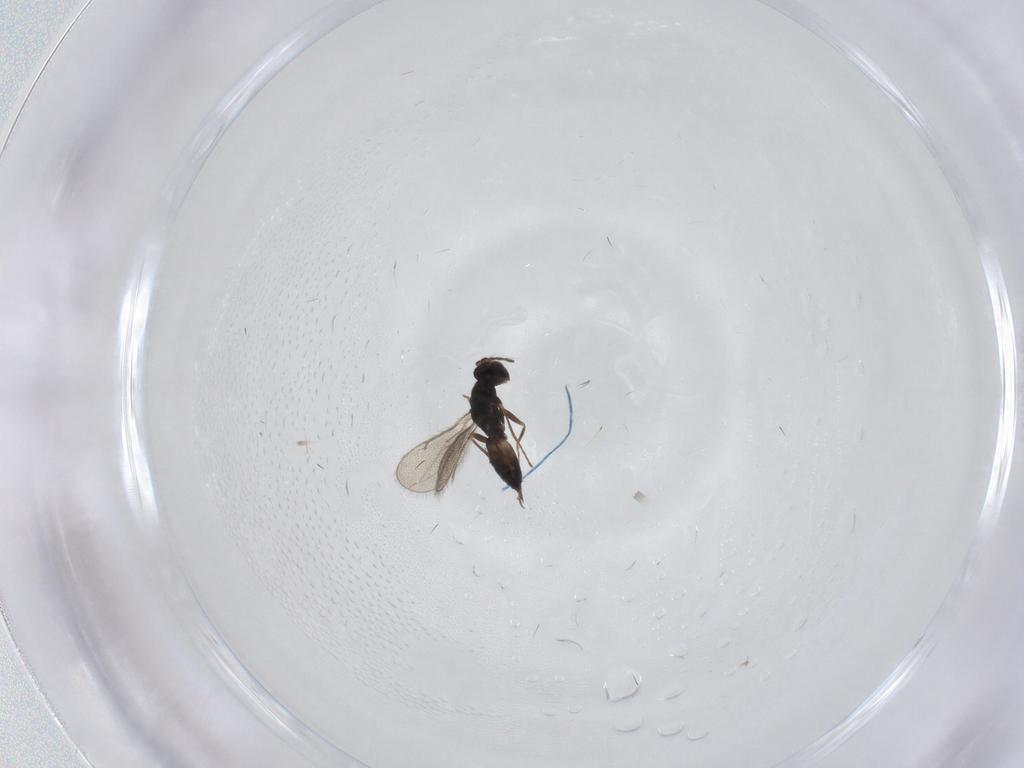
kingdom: Animalia
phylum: Arthropoda
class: Insecta
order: Hymenoptera
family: Eulophidae
